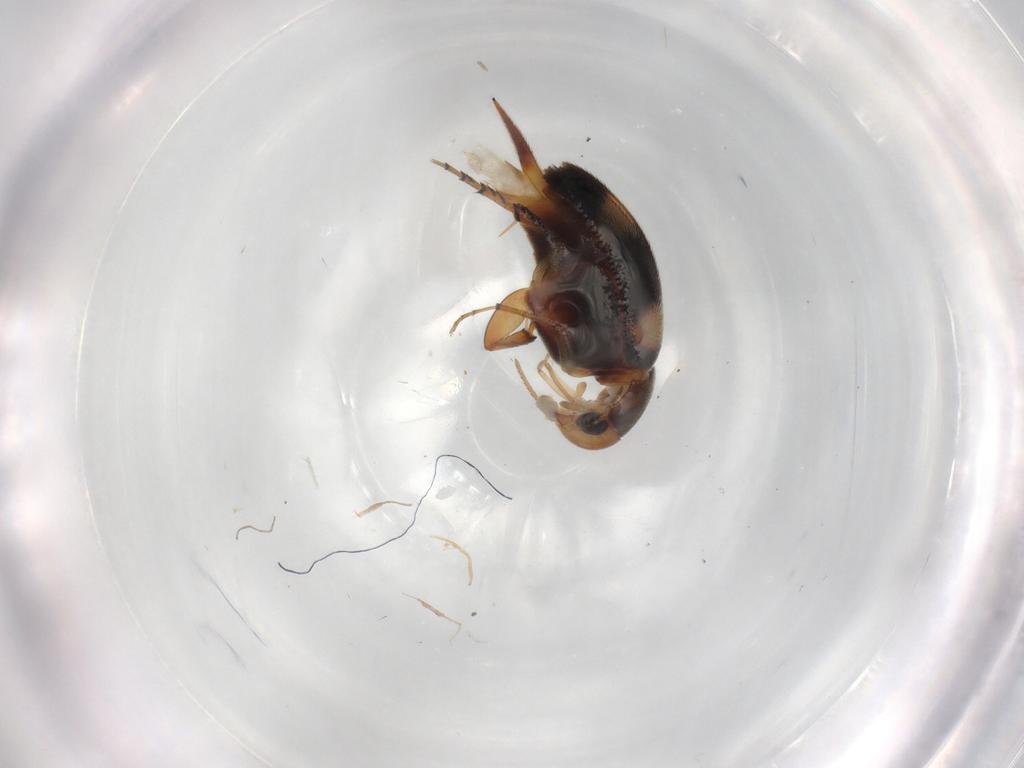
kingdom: Animalia
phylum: Arthropoda
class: Insecta
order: Coleoptera
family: Mordellidae
